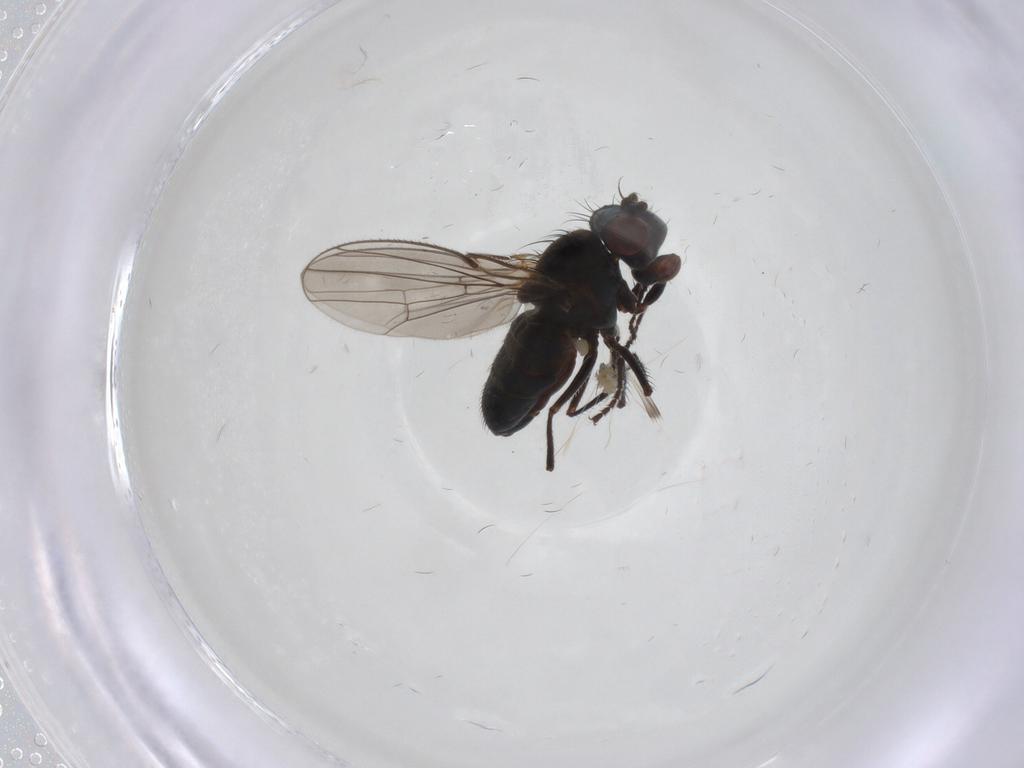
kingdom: Animalia
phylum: Arthropoda
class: Insecta
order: Diptera
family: Ephydridae
